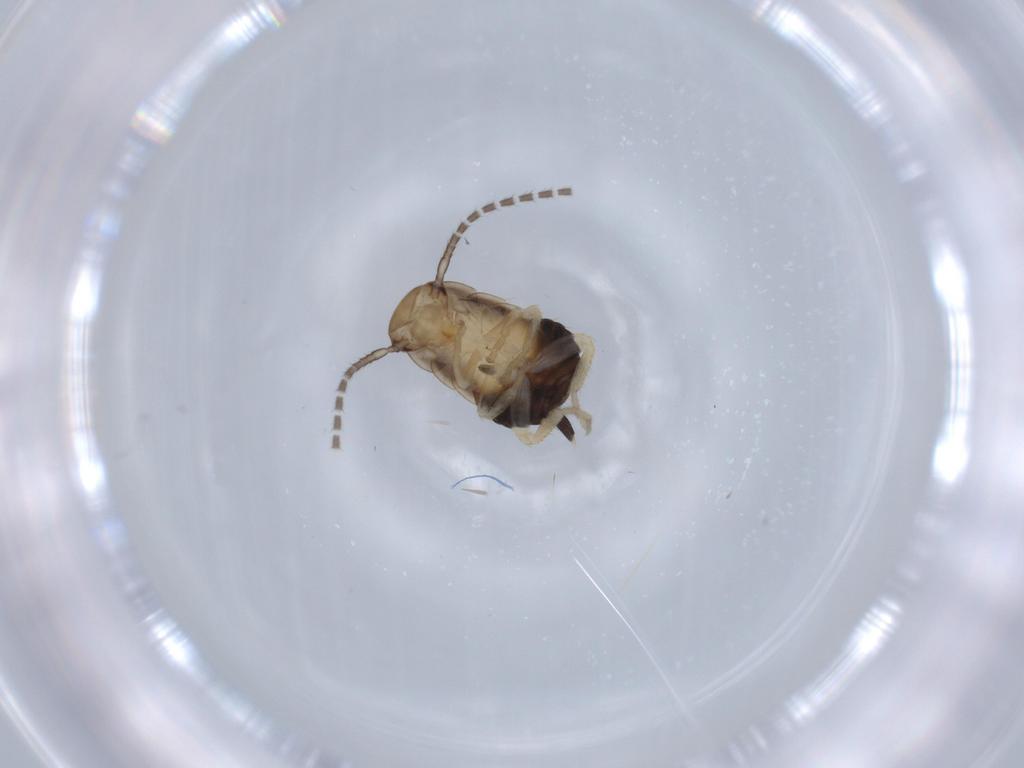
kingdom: Animalia
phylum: Arthropoda
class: Insecta
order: Blattodea
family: Ectobiidae
